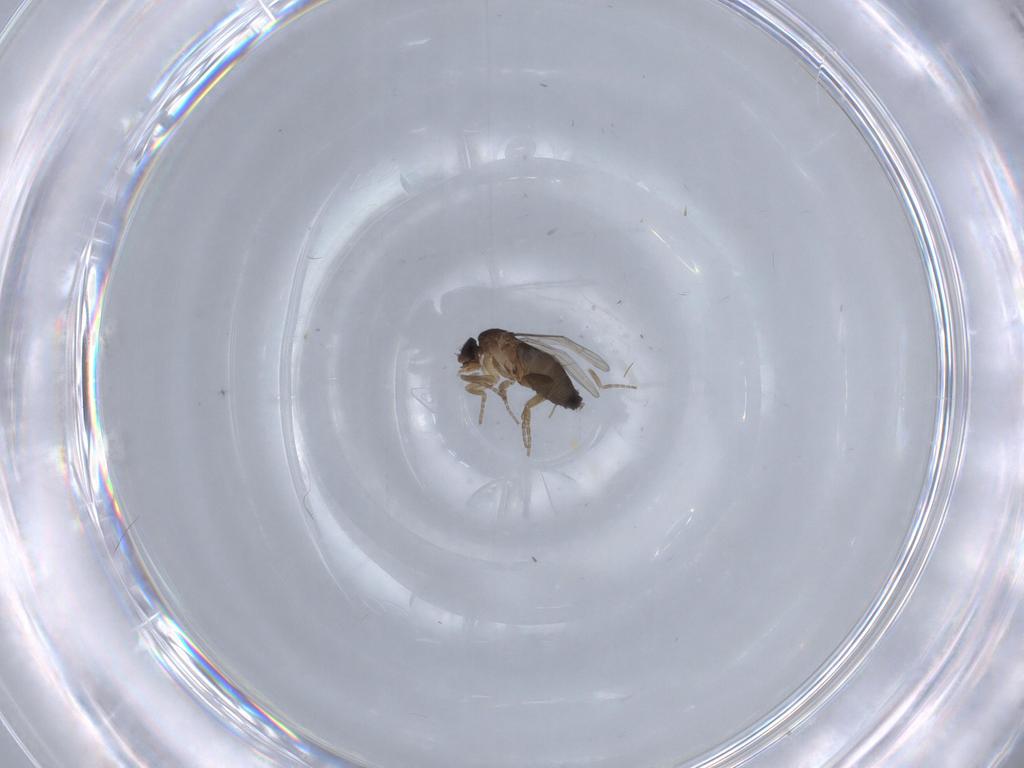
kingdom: Animalia
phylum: Arthropoda
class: Insecta
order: Diptera
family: Phoridae
